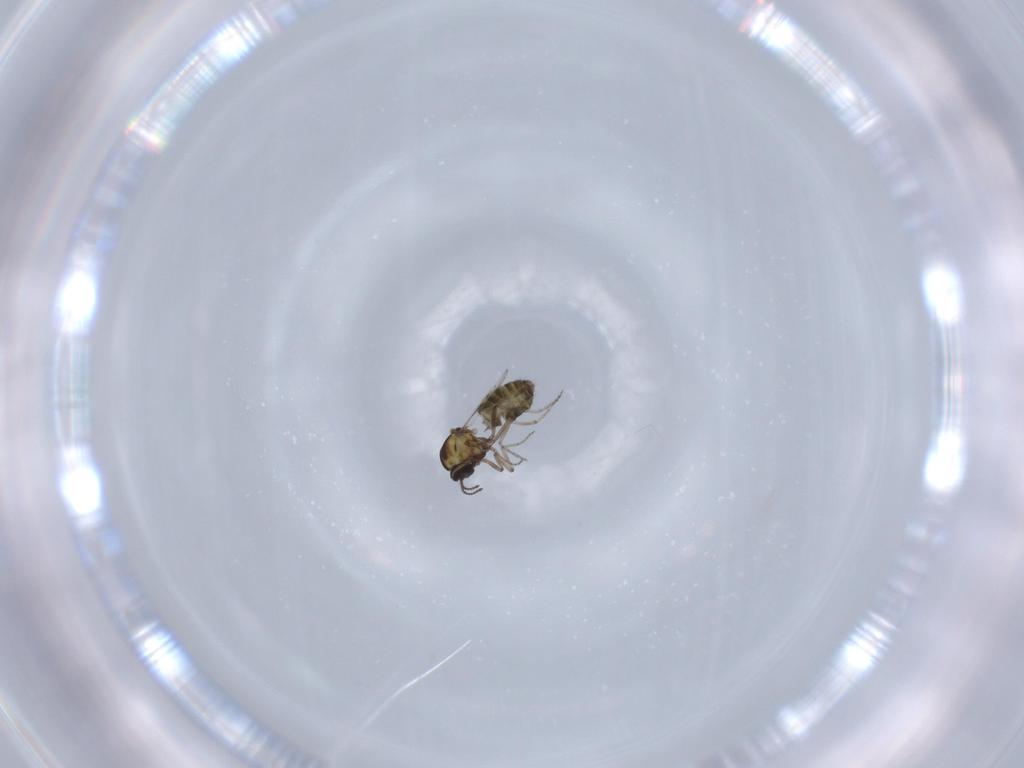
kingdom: Animalia
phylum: Arthropoda
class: Insecta
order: Diptera
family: Ceratopogonidae
